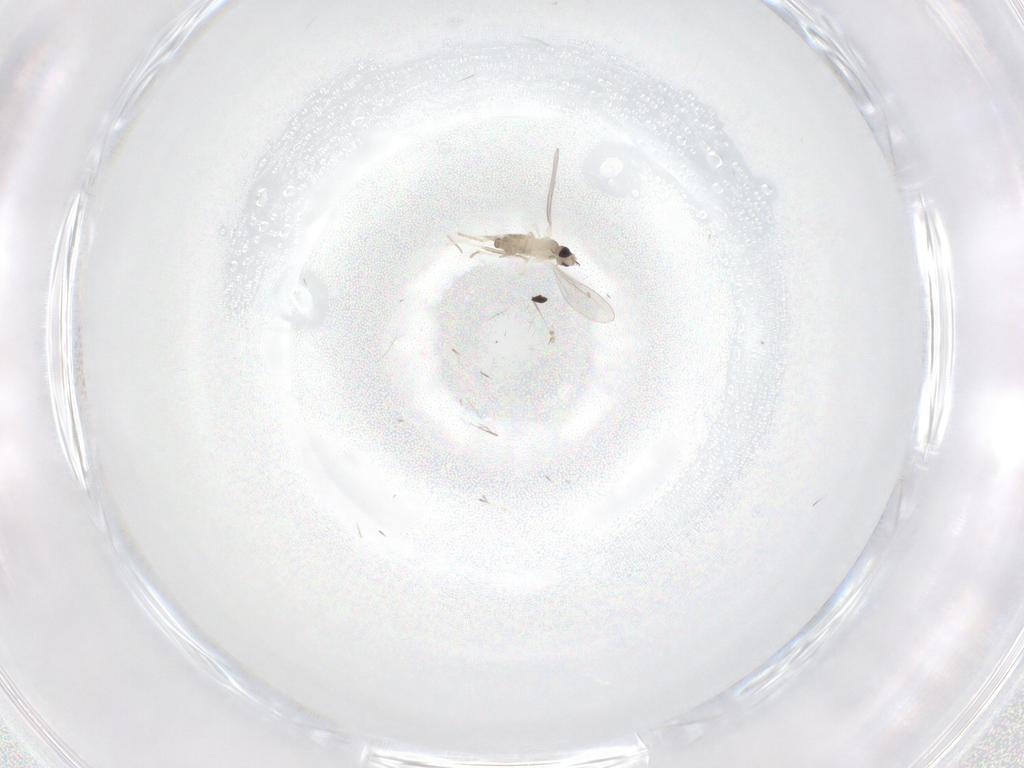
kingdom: Animalia
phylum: Arthropoda
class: Insecta
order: Diptera
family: Cecidomyiidae
